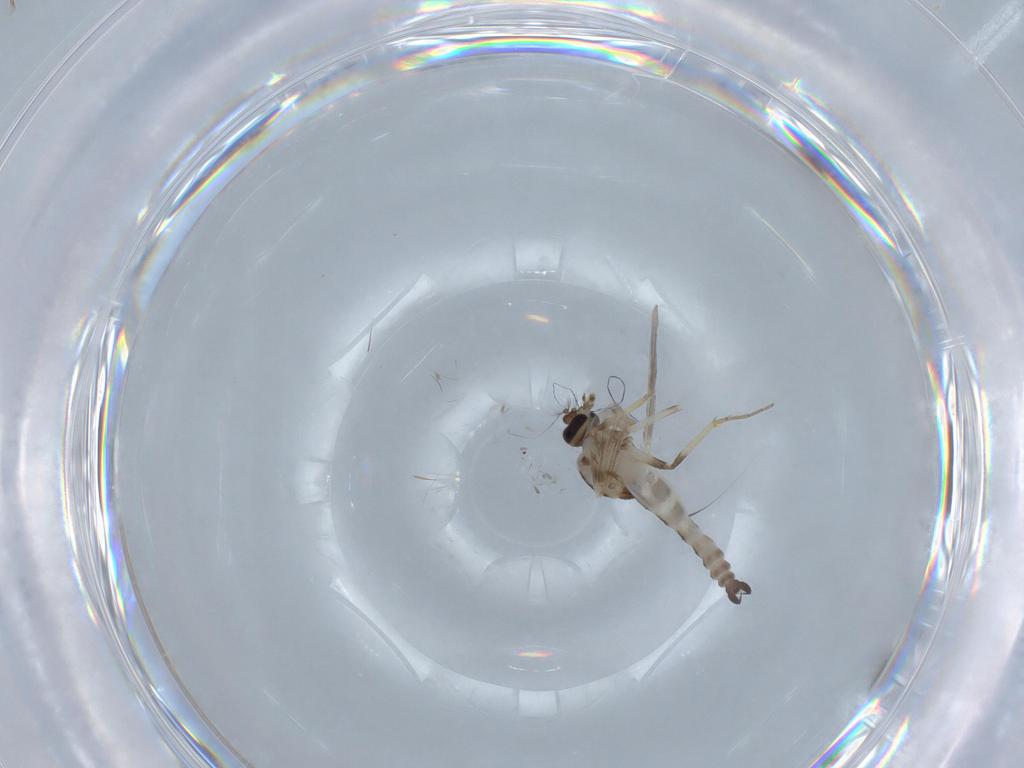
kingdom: Animalia
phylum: Arthropoda
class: Insecta
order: Diptera
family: Ceratopogonidae
